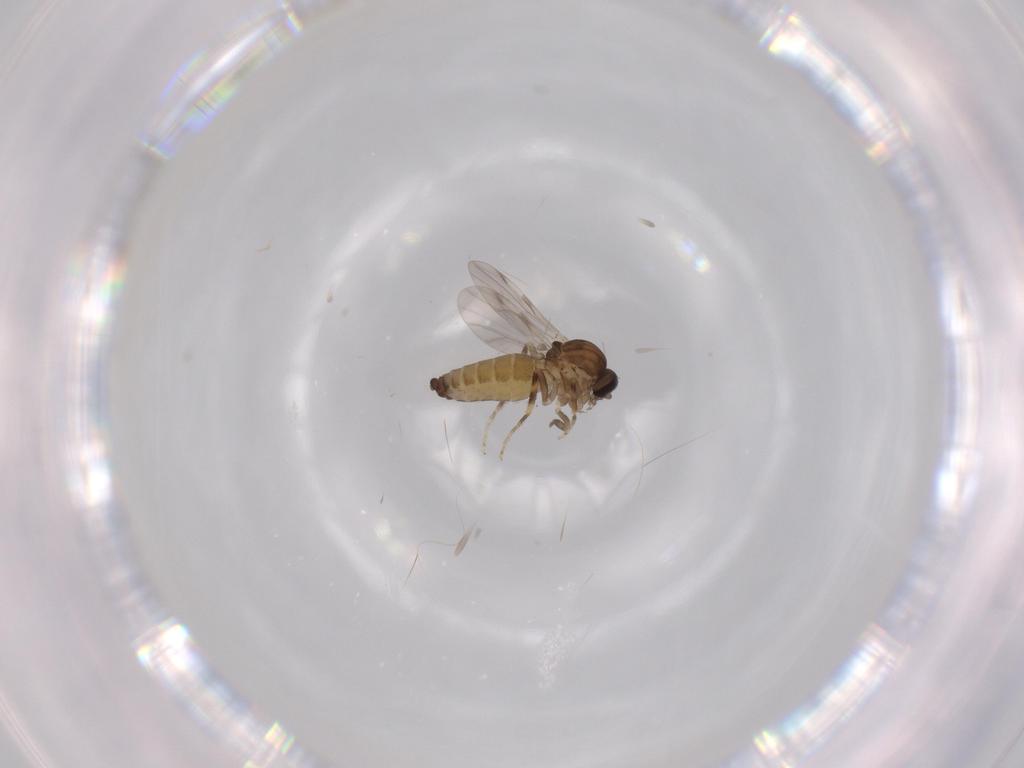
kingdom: Animalia
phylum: Arthropoda
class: Insecta
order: Diptera
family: Ceratopogonidae
